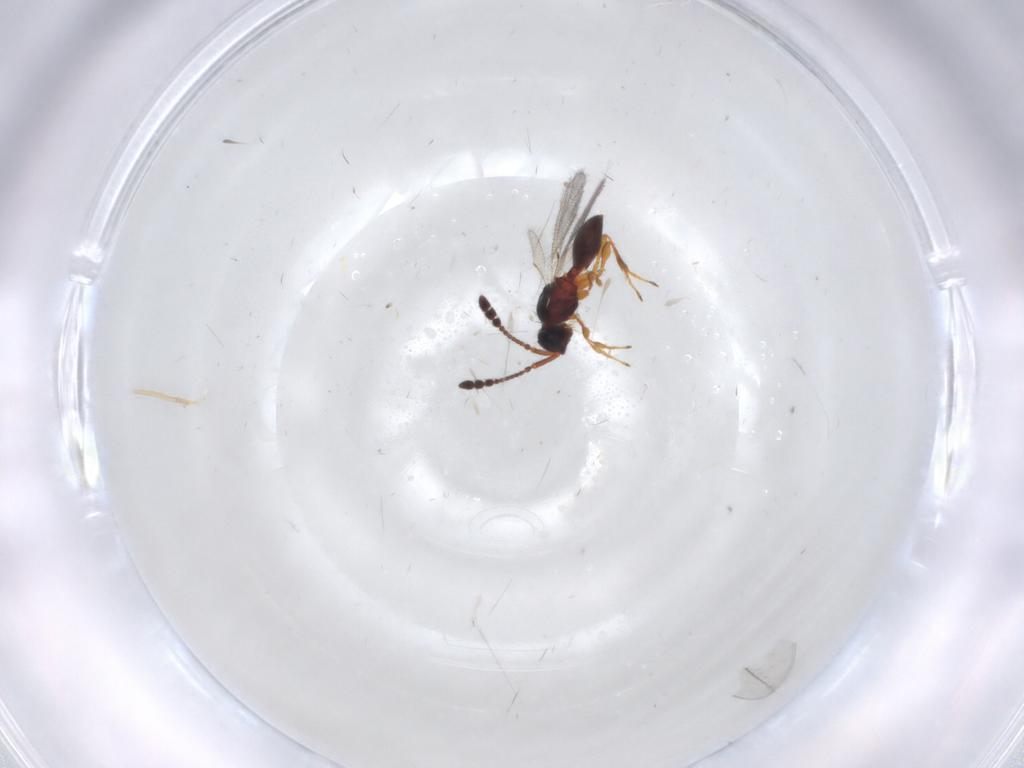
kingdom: Animalia
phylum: Arthropoda
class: Insecta
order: Hymenoptera
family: Diapriidae
